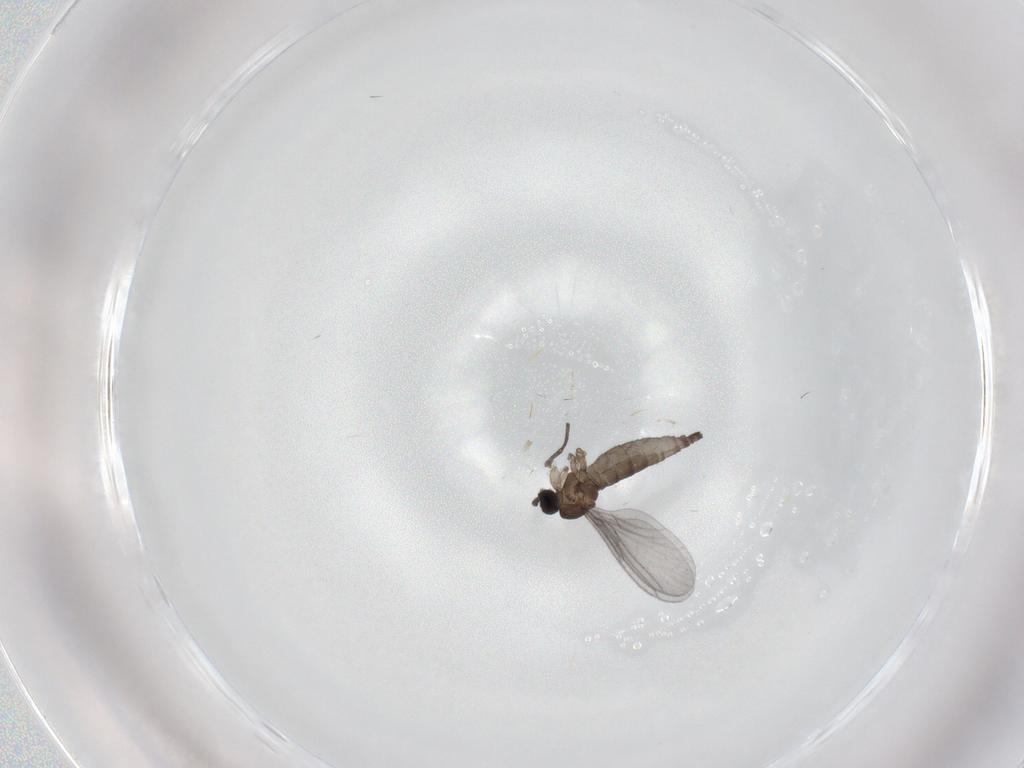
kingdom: Animalia
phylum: Arthropoda
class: Insecta
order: Diptera
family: Sciaridae
